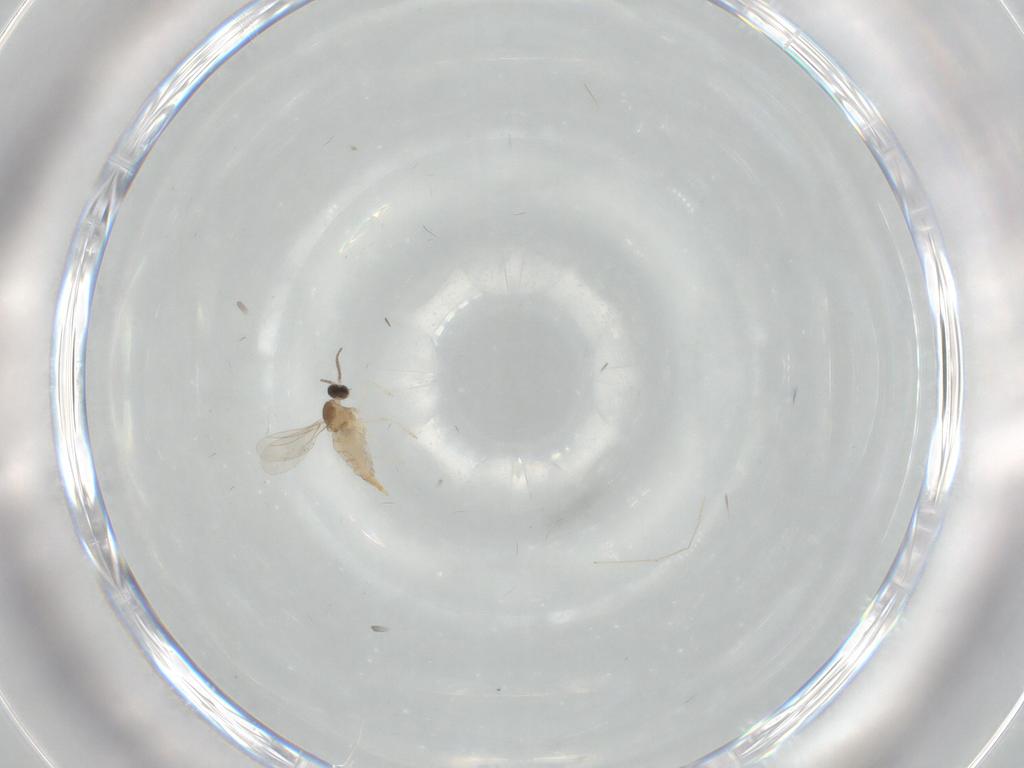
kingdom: Animalia
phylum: Arthropoda
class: Insecta
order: Diptera
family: Cecidomyiidae
